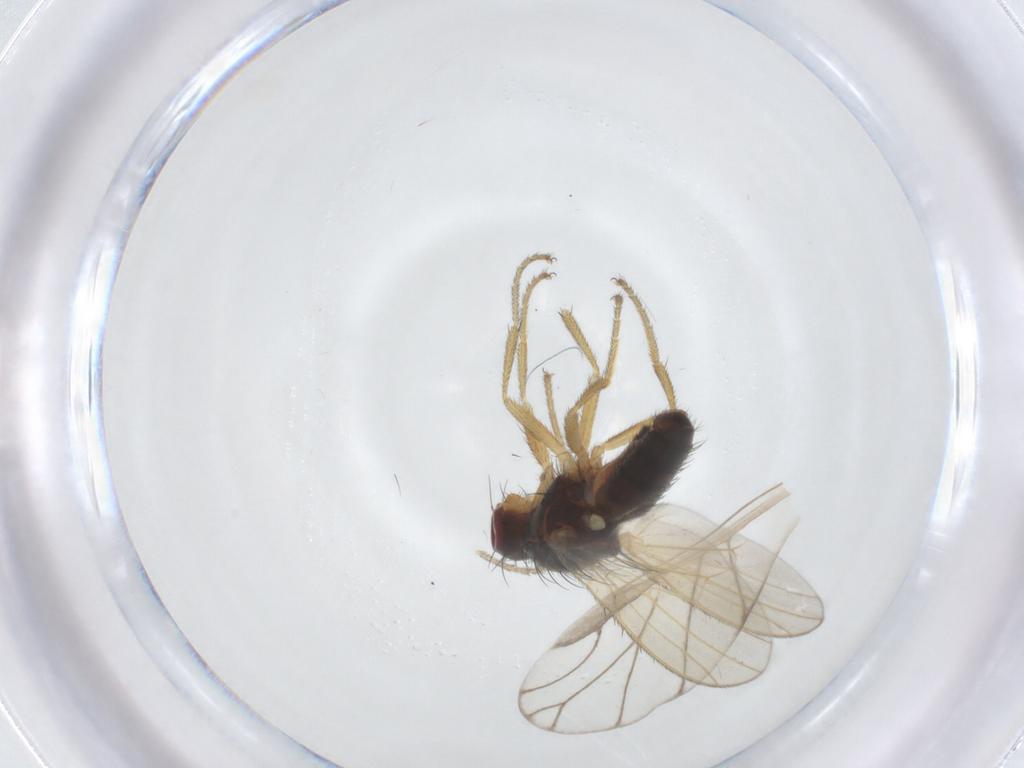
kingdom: Animalia
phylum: Arthropoda
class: Insecta
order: Diptera
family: Heleomyzidae
